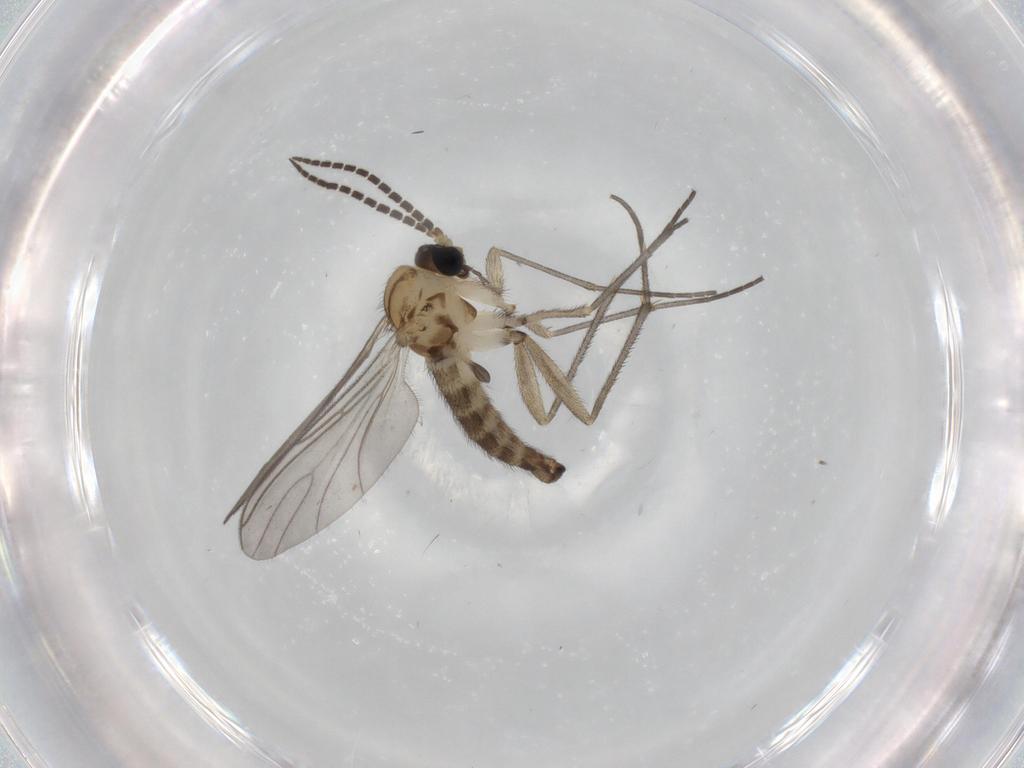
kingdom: Animalia
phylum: Arthropoda
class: Insecta
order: Diptera
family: Sciaridae
